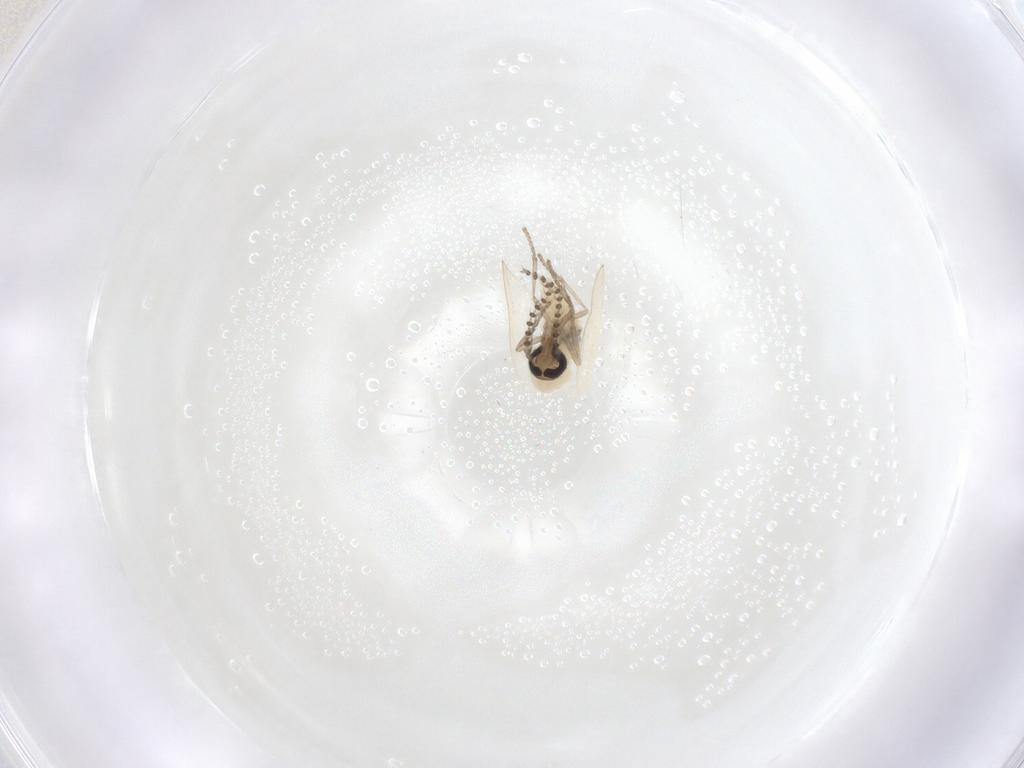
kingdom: Animalia
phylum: Arthropoda
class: Insecta
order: Diptera
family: Psychodidae
